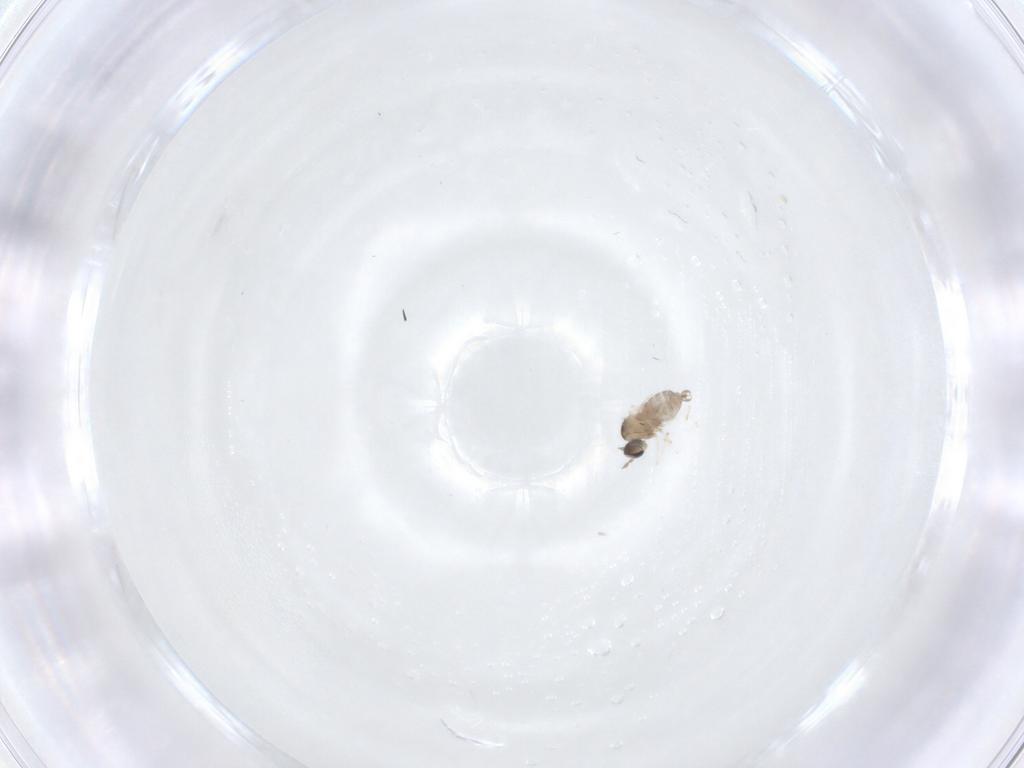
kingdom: Animalia
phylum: Arthropoda
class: Insecta
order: Diptera
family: Cecidomyiidae
